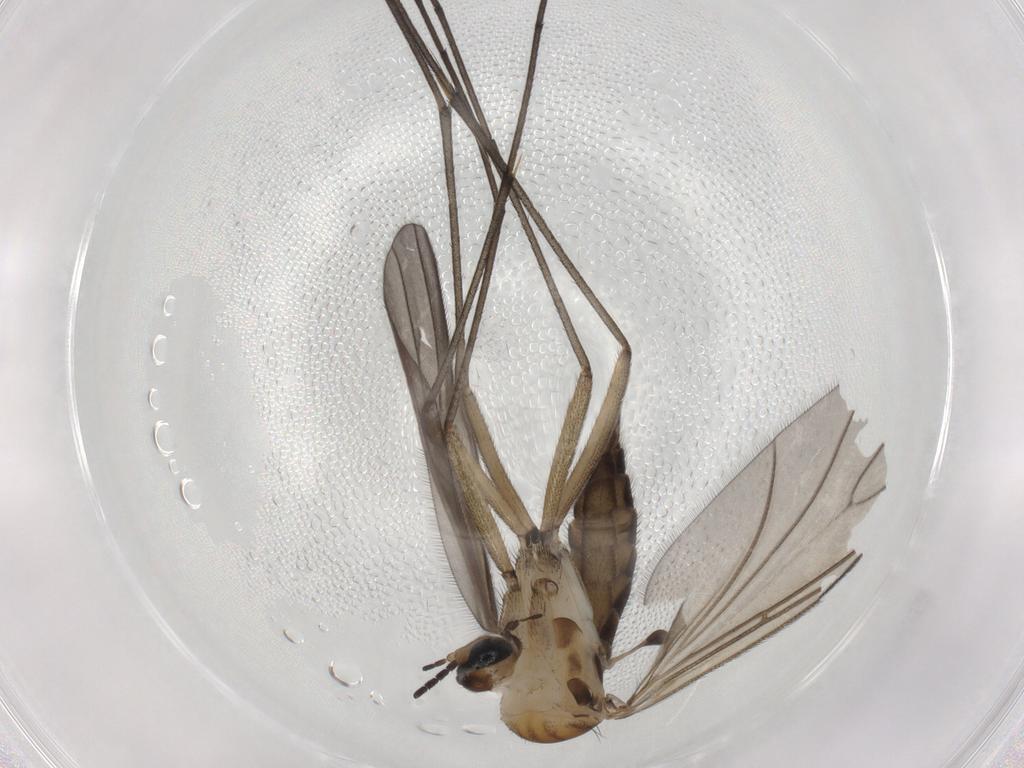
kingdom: Animalia
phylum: Arthropoda
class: Insecta
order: Diptera
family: Sciaridae
